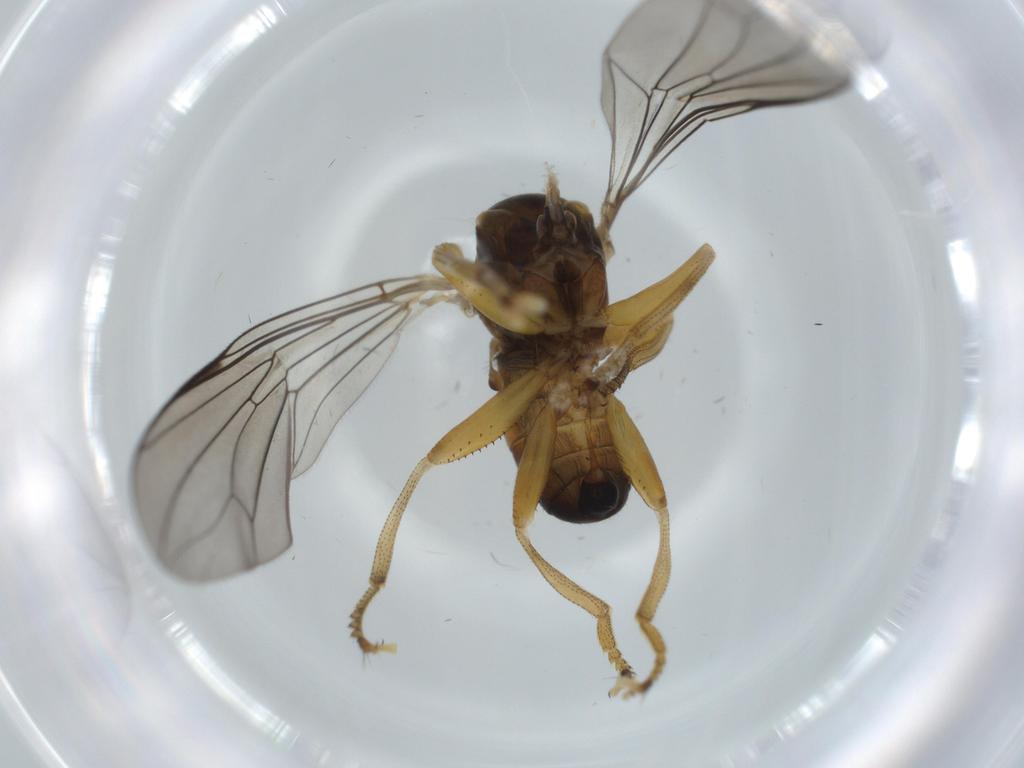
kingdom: Animalia
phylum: Arthropoda
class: Insecta
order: Diptera
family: Pipunculidae
